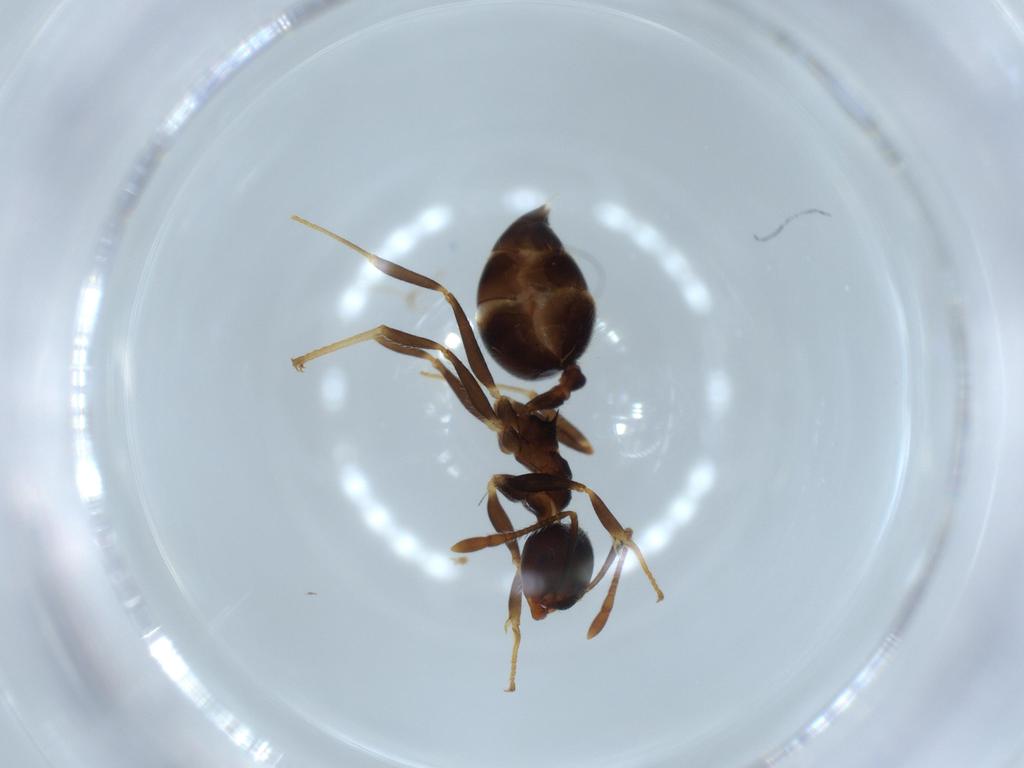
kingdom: Animalia
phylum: Arthropoda
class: Insecta
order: Hymenoptera
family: Formicidae
